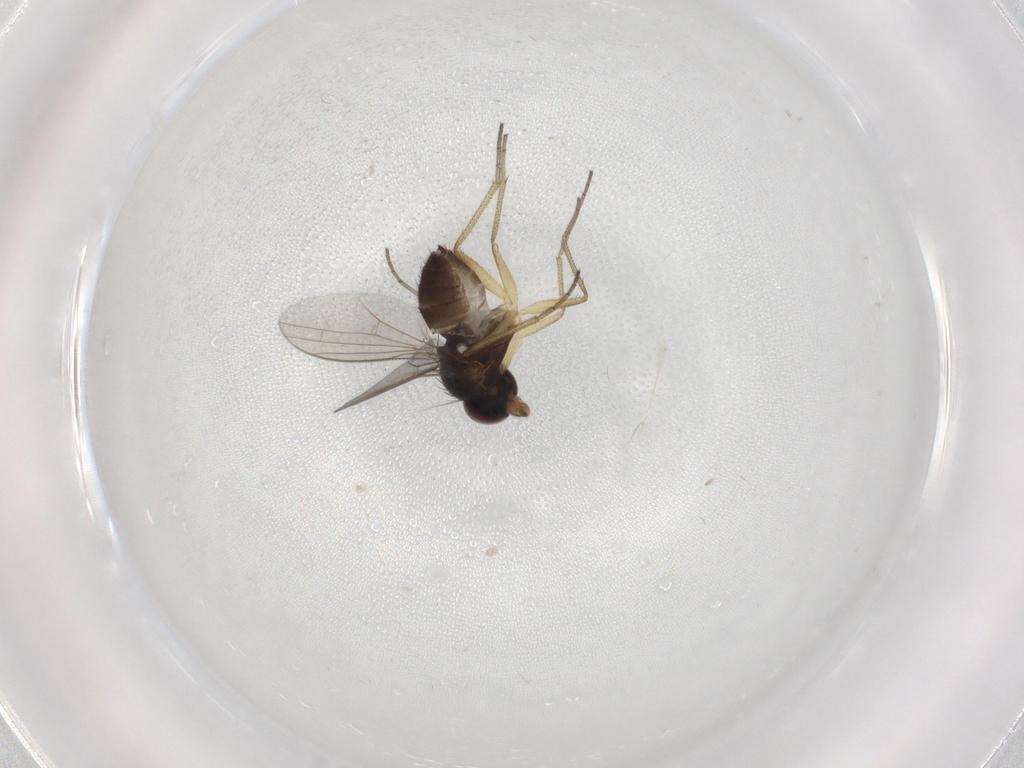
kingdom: Animalia
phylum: Arthropoda
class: Insecta
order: Diptera
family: Dolichopodidae
